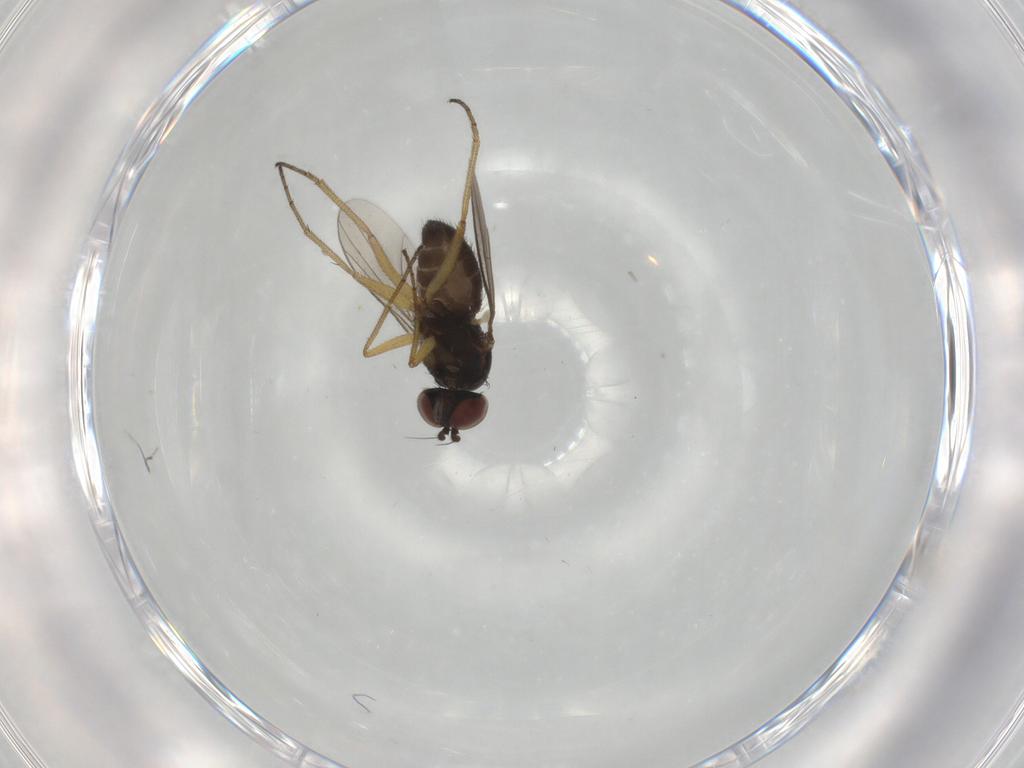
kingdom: Animalia
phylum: Arthropoda
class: Insecta
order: Diptera
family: Dolichopodidae
